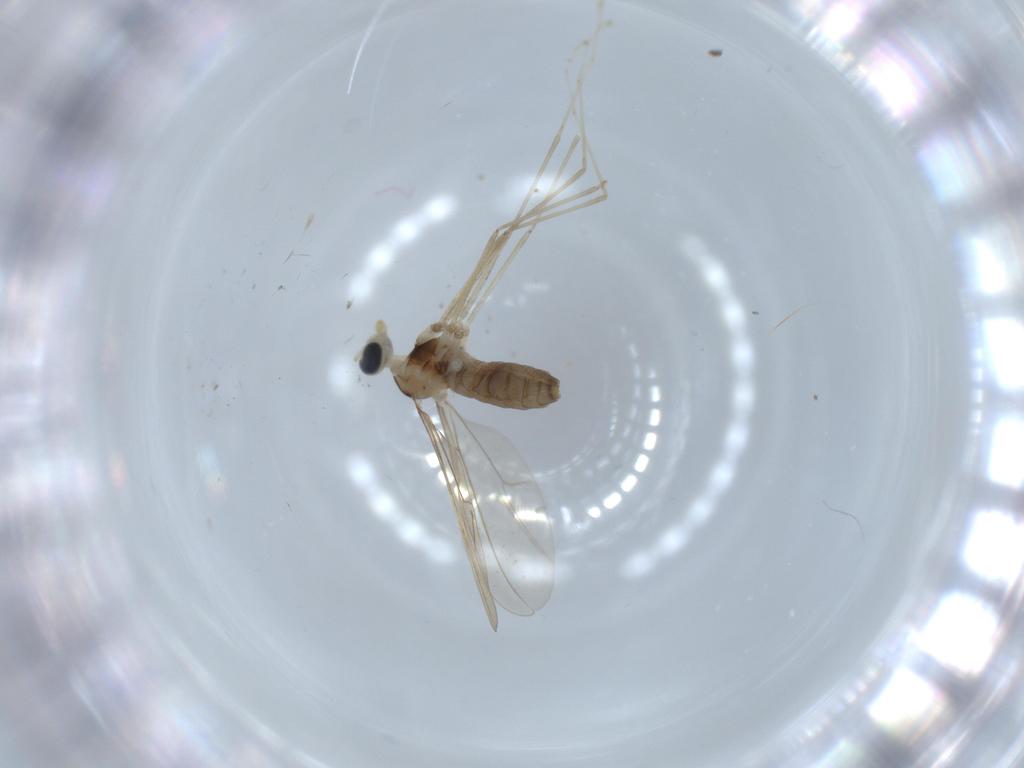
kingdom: Animalia
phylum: Arthropoda
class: Insecta
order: Diptera
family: Cecidomyiidae
